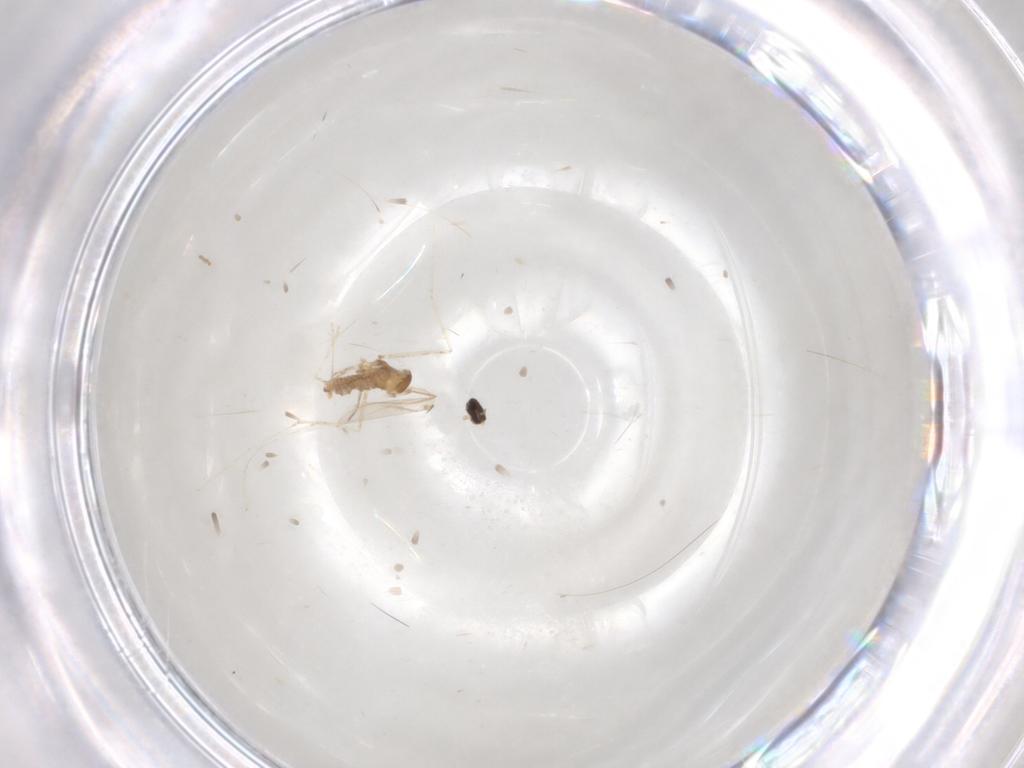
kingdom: Animalia
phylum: Arthropoda
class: Insecta
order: Diptera
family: Cecidomyiidae
